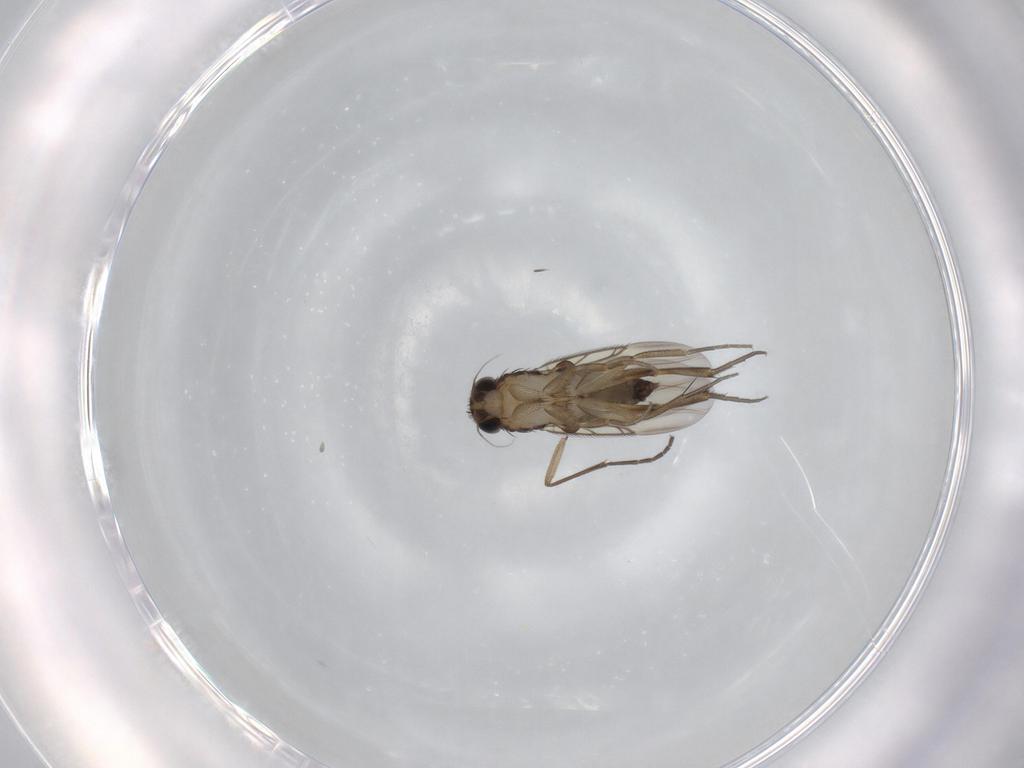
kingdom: Animalia
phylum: Arthropoda
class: Insecta
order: Diptera
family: Phoridae
